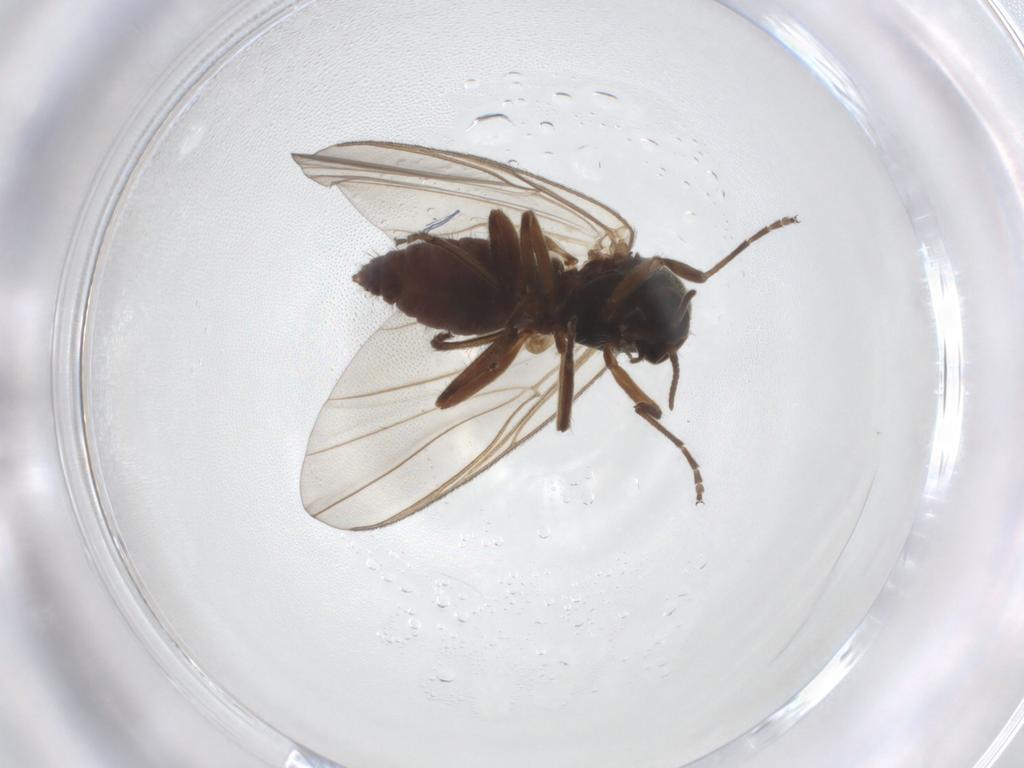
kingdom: Animalia
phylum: Arthropoda
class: Insecta
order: Diptera
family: Simuliidae
